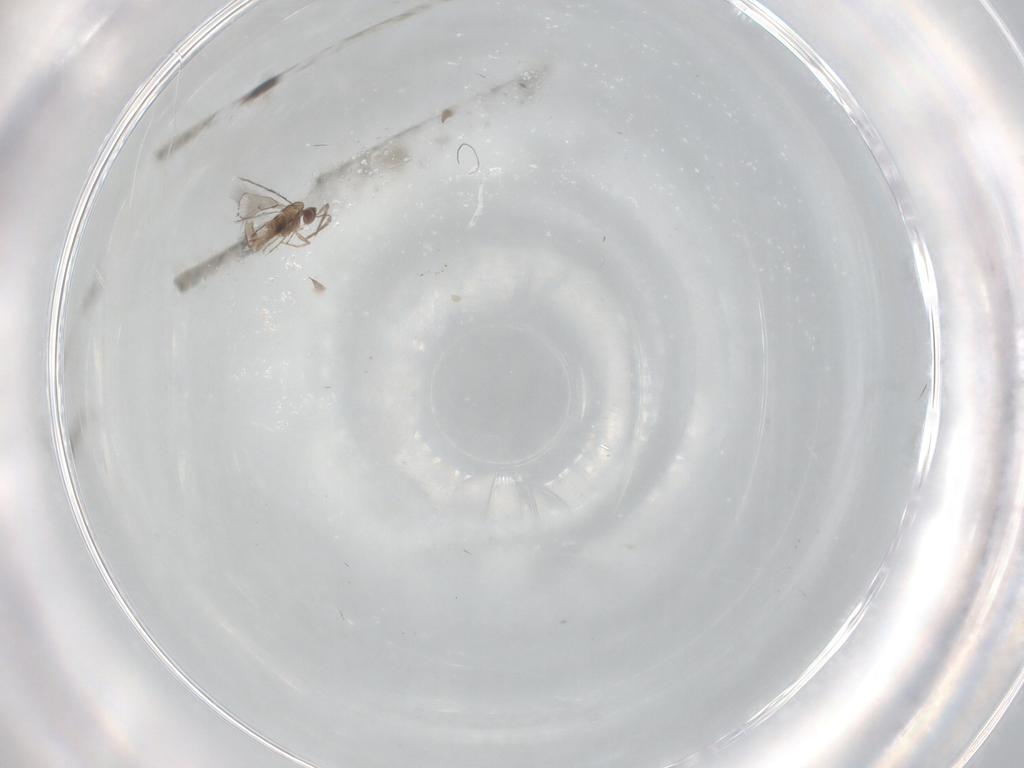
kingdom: Animalia
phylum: Arthropoda
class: Insecta
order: Hymenoptera
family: Trichogrammatidae
